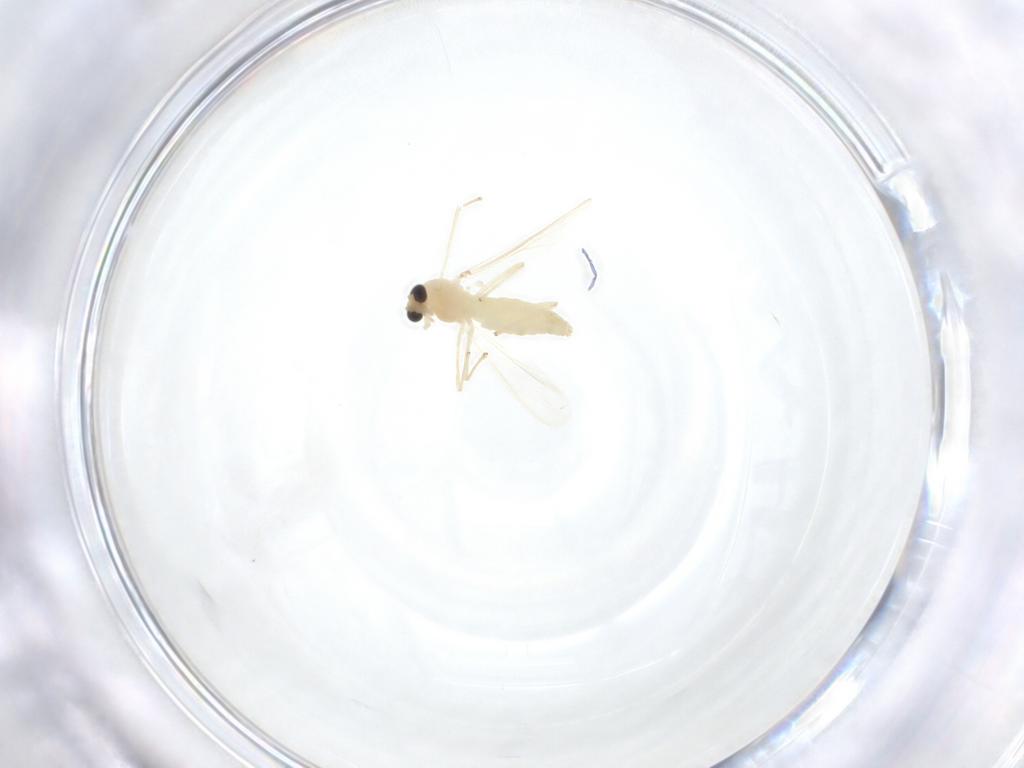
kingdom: Animalia
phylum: Arthropoda
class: Insecta
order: Diptera
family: Chironomidae
